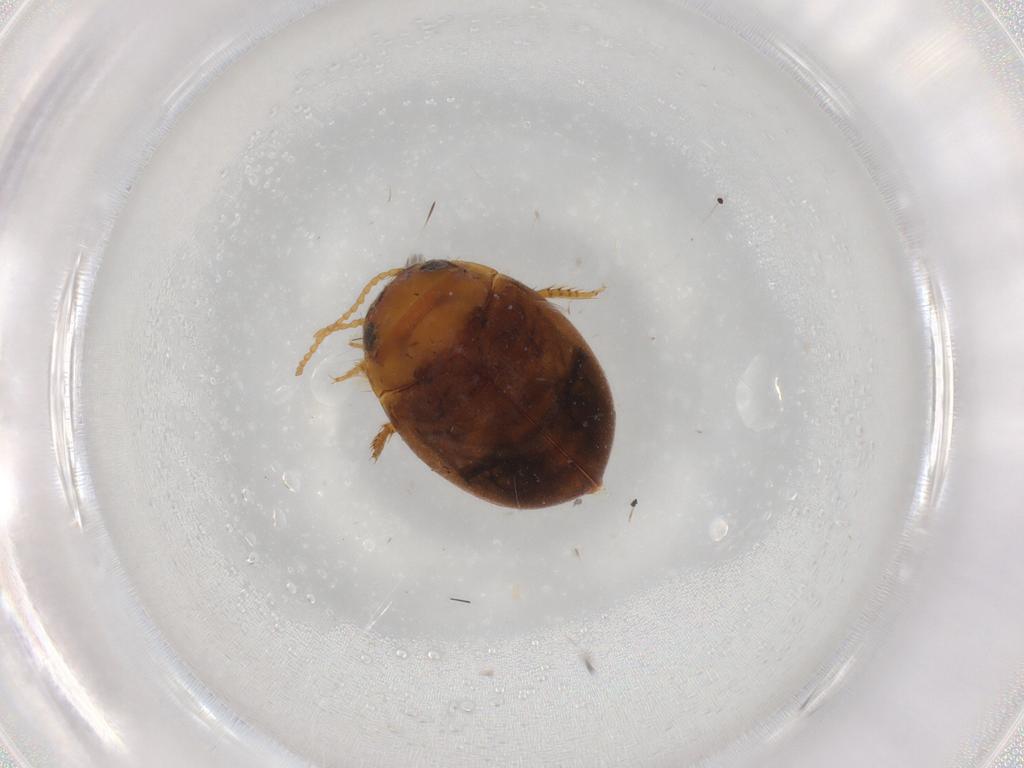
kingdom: Animalia
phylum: Arthropoda
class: Insecta
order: Coleoptera
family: Dytiscidae
